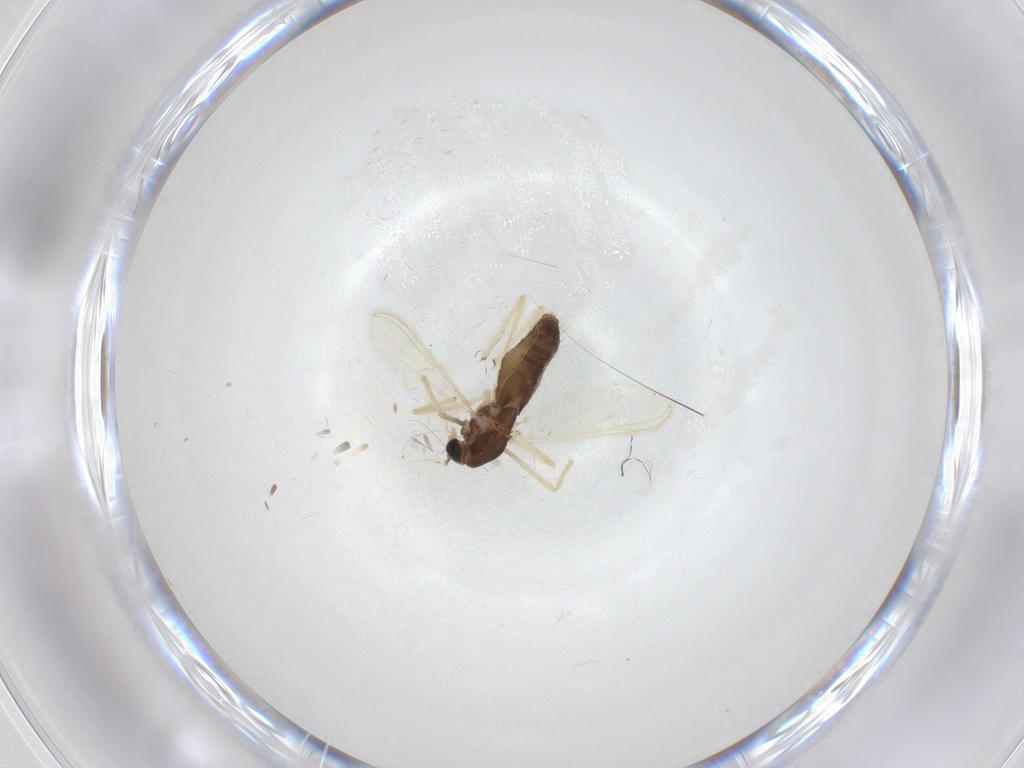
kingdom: Animalia
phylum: Arthropoda
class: Insecta
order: Diptera
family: Chironomidae
